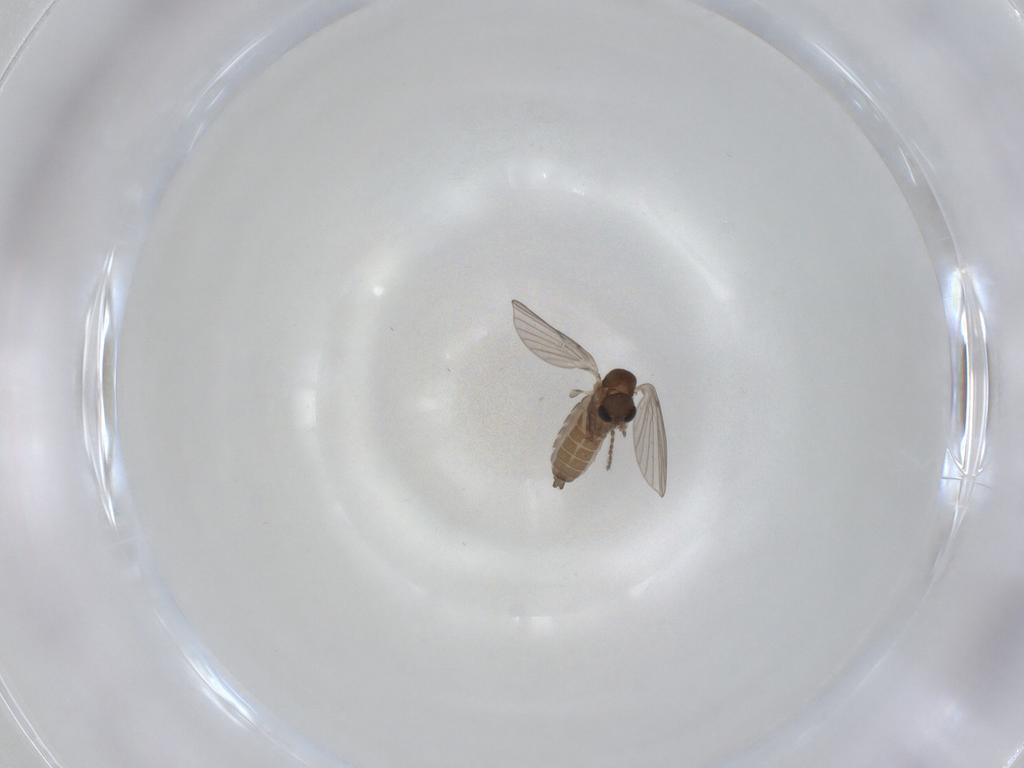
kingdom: Animalia
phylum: Arthropoda
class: Insecta
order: Diptera
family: Limoniidae
